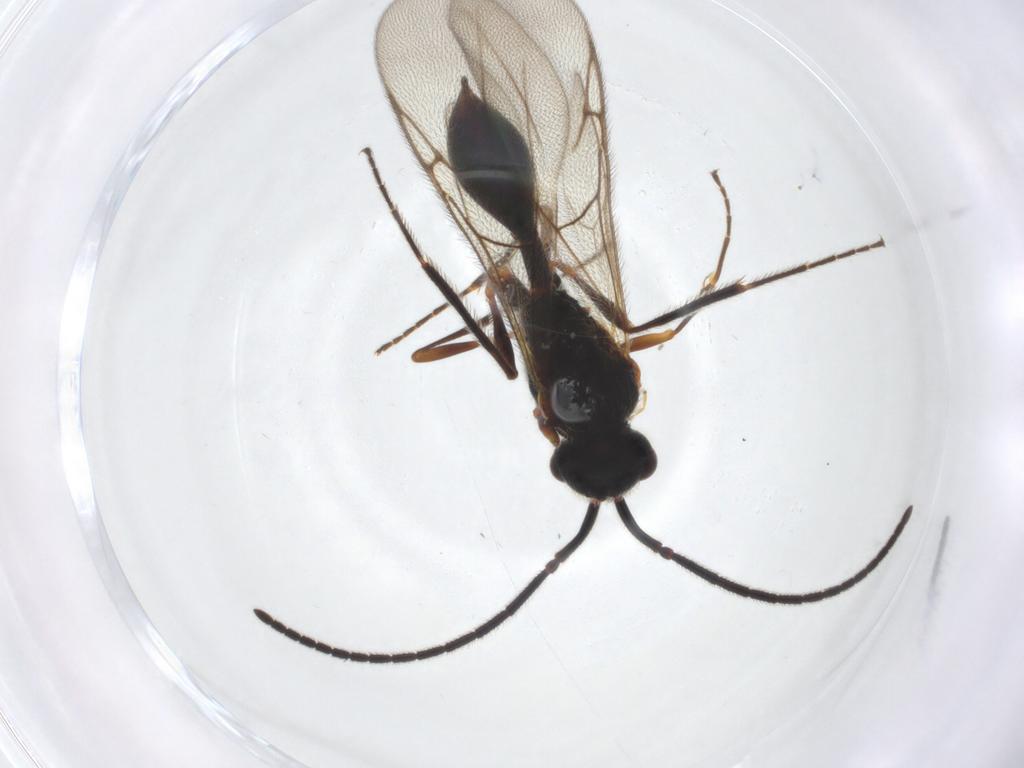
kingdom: Animalia
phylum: Arthropoda
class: Insecta
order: Hymenoptera
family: Diapriidae
